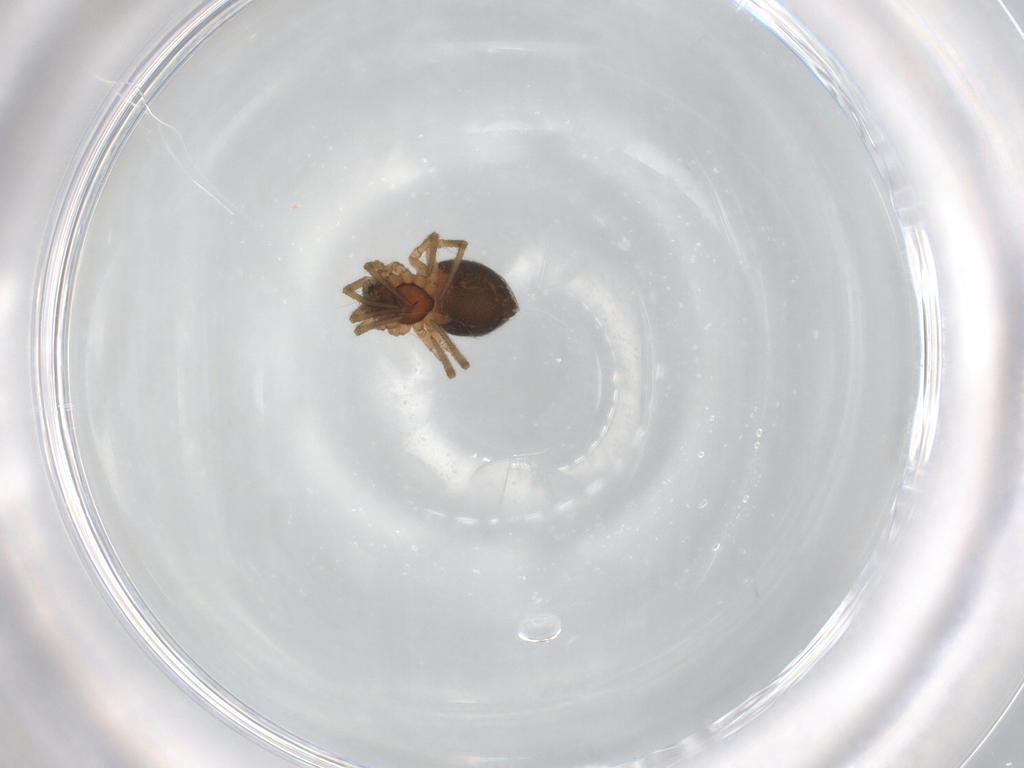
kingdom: Animalia
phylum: Arthropoda
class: Arachnida
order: Araneae
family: Linyphiidae
